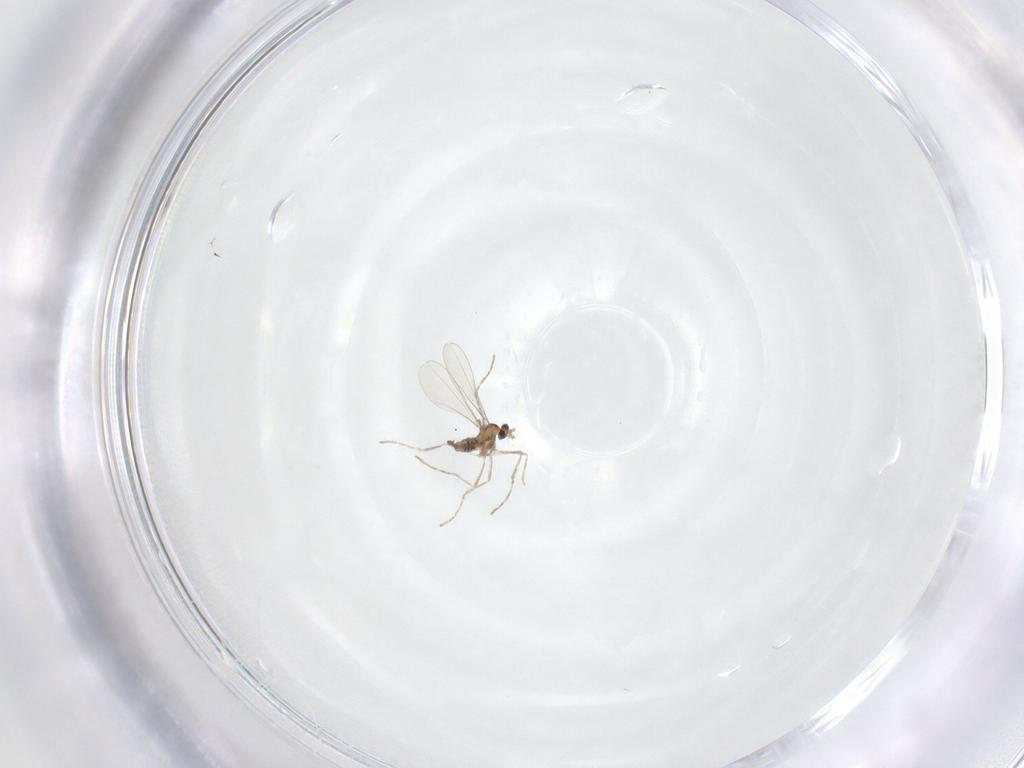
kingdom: Animalia
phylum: Arthropoda
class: Insecta
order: Diptera
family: Cecidomyiidae
